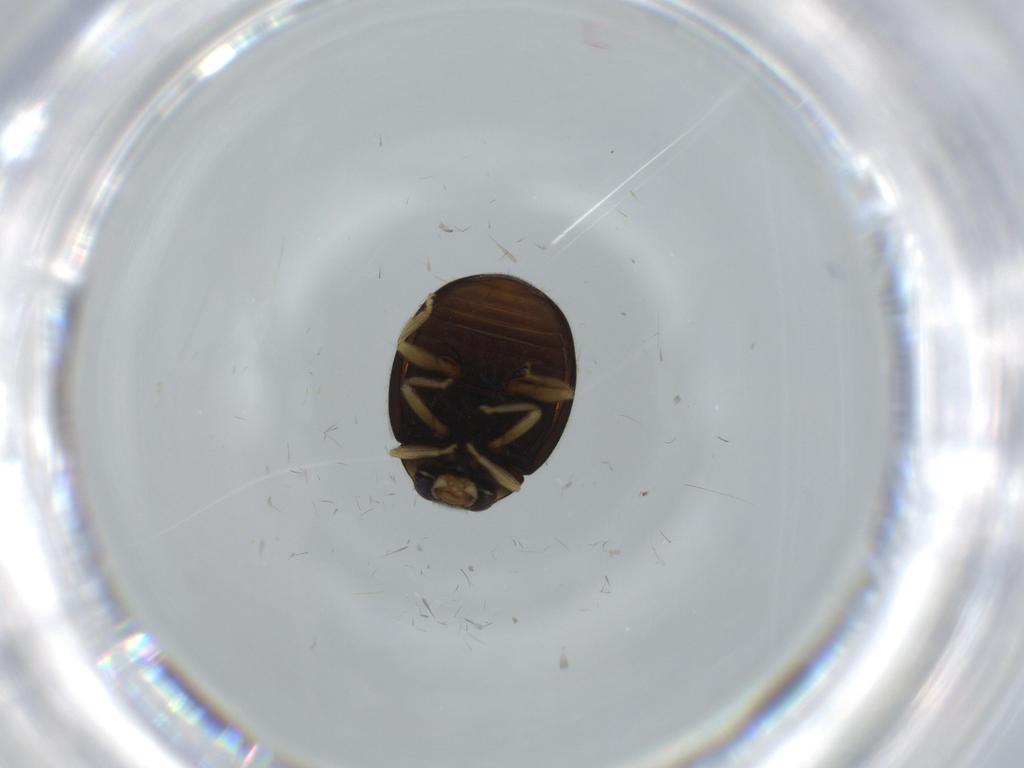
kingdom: Animalia
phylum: Arthropoda
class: Insecta
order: Coleoptera
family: Coccinellidae
